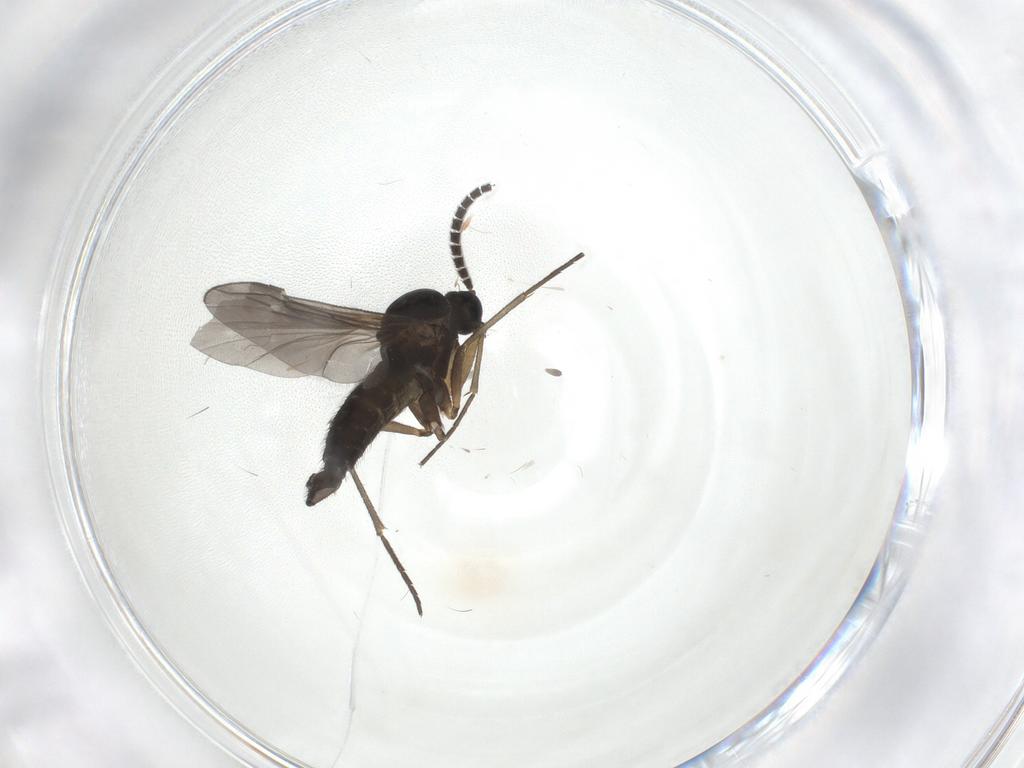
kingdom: Animalia
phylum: Arthropoda
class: Insecta
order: Diptera
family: Sciaridae
